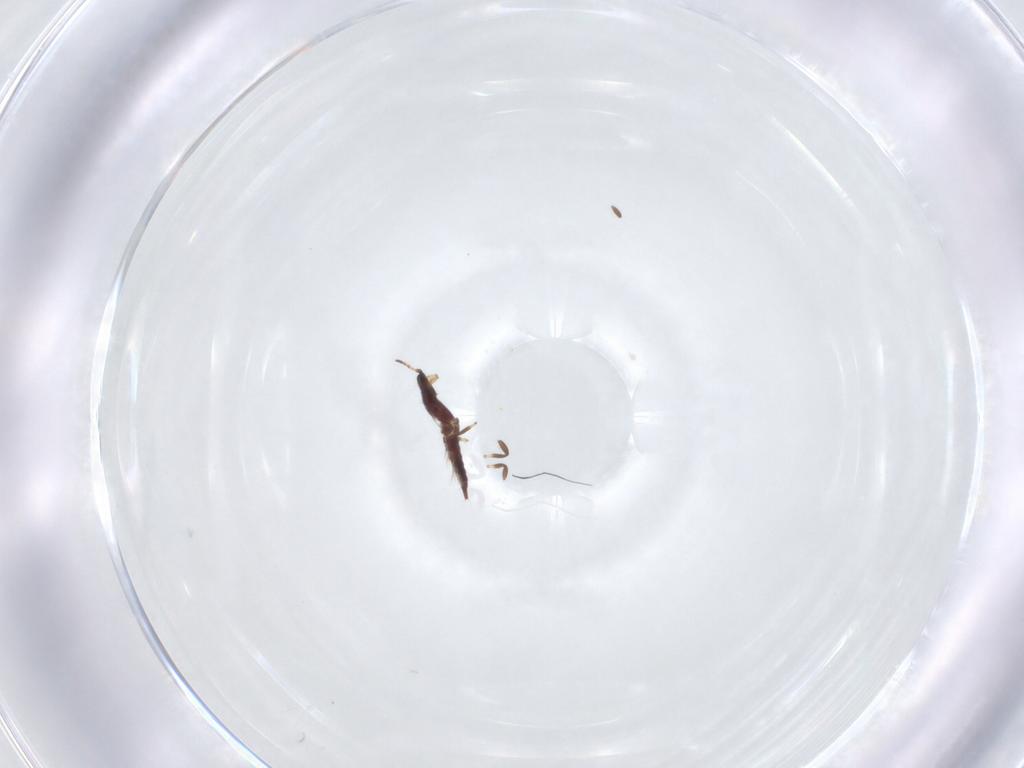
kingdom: Animalia
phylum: Arthropoda
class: Insecta
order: Thysanoptera
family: Phlaeothripidae
